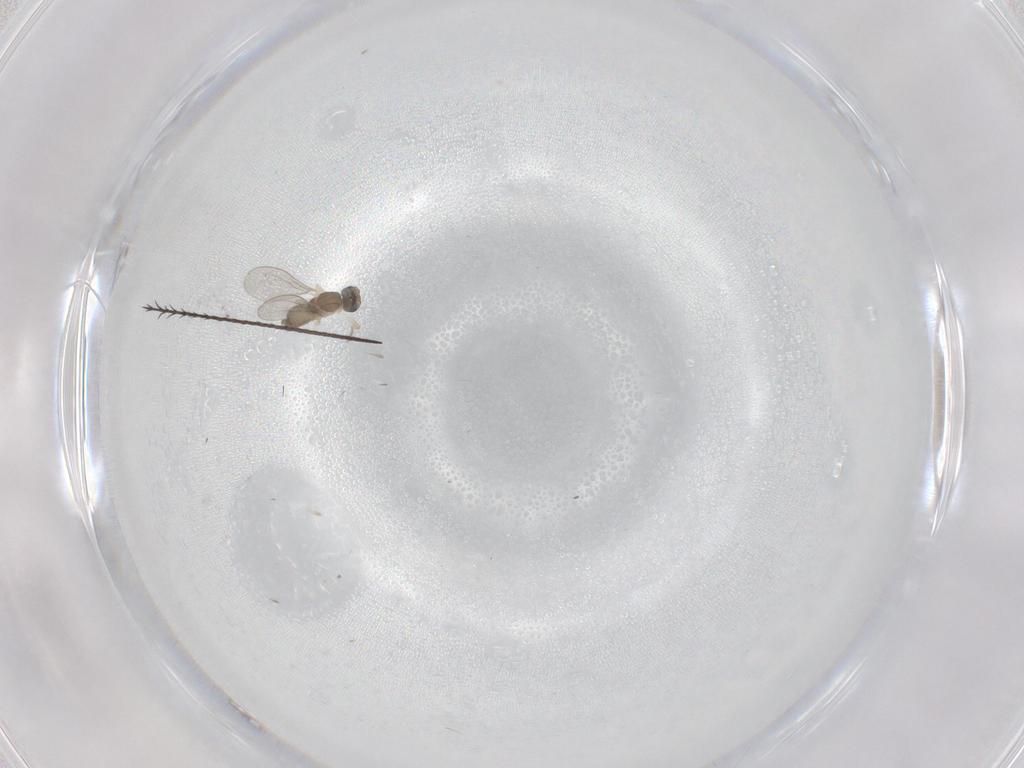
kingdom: Animalia
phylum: Arthropoda
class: Insecta
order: Diptera
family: Cecidomyiidae
